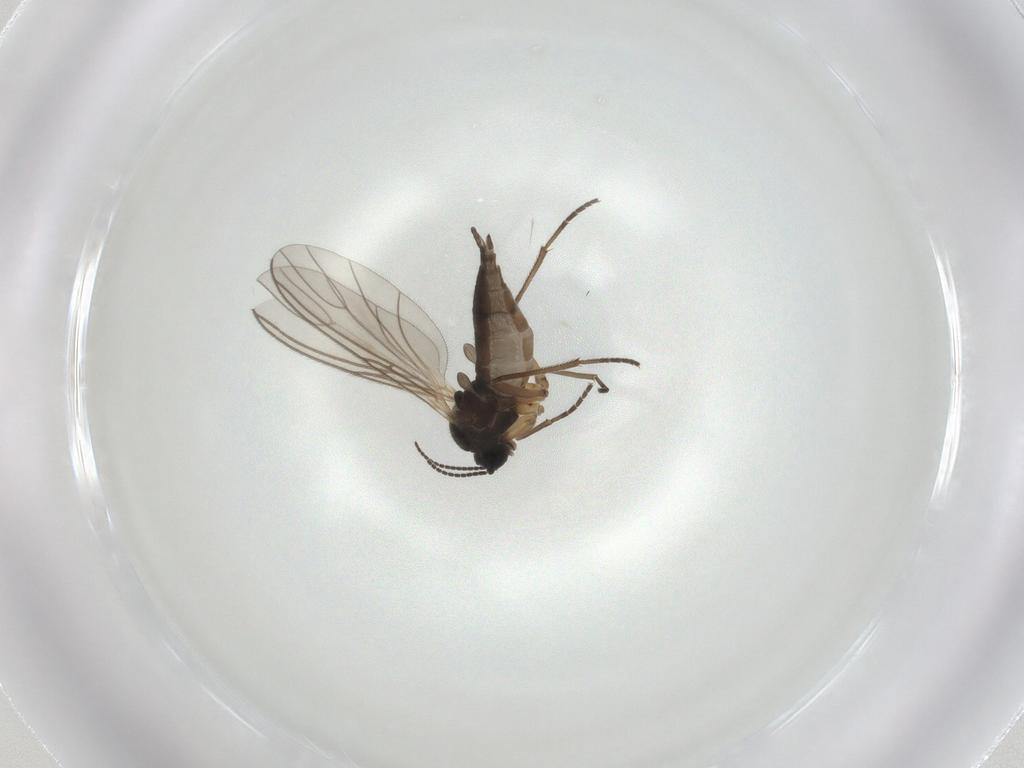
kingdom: Animalia
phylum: Arthropoda
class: Insecta
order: Diptera
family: Sciaridae
